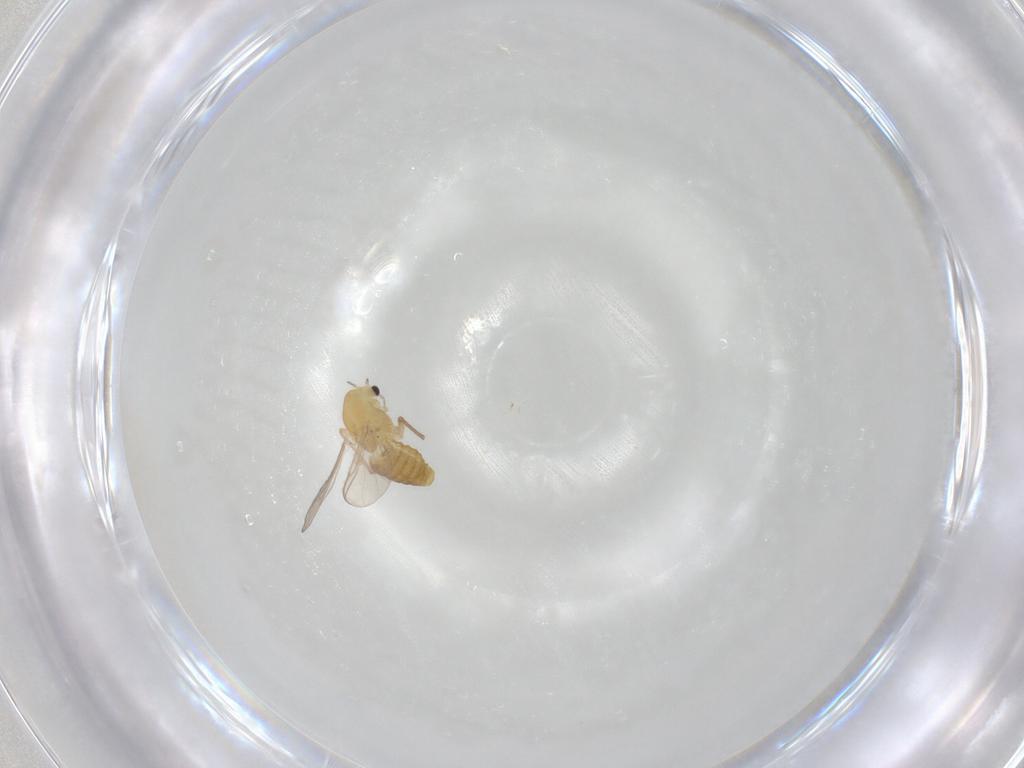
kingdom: Animalia
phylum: Arthropoda
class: Insecta
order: Diptera
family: Chironomidae
